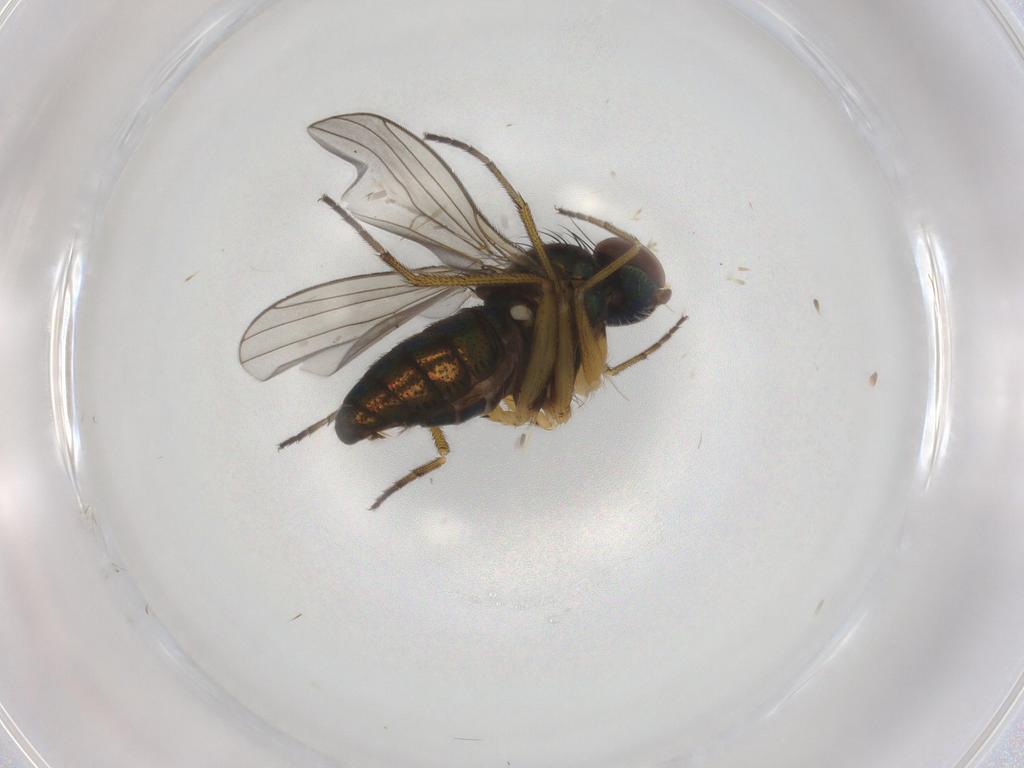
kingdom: Animalia
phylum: Arthropoda
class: Insecta
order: Diptera
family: Dolichopodidae
